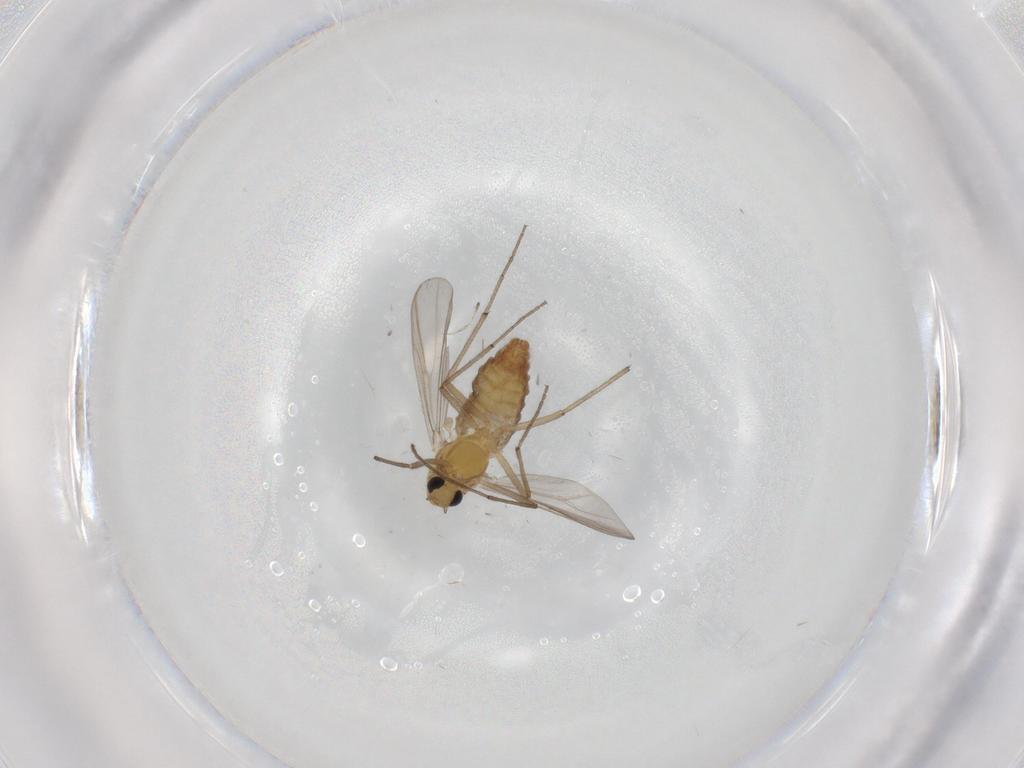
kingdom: Animalia
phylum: Arthropoda
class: Insecta
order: Diptera
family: Chironomidae
